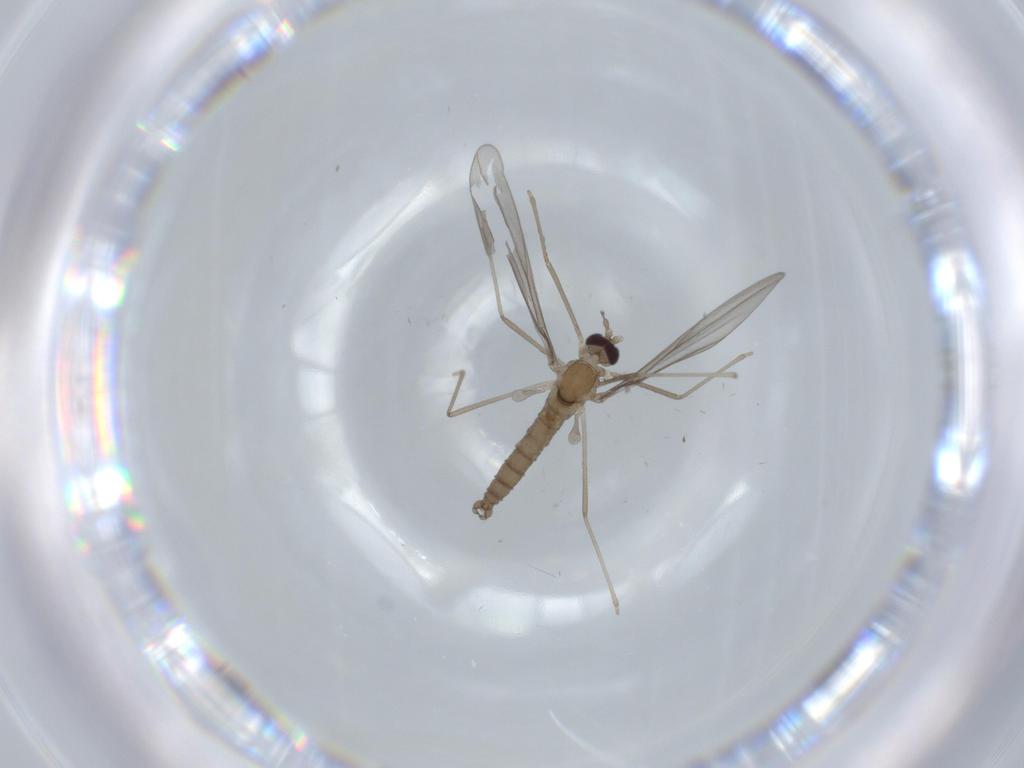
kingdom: Animalia
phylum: Arthropoda
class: Insecta
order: Diptera
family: Cecidomyiidae
